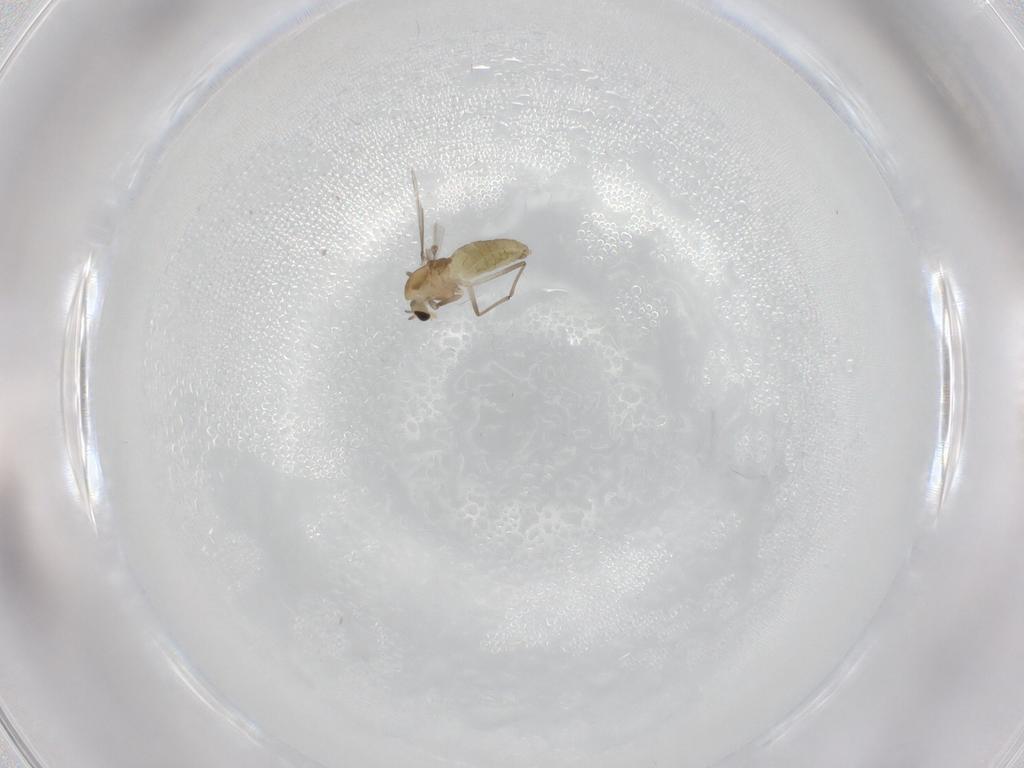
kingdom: Animalia
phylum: Arthropoda
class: Insecta
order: Diptera
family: Chironomidae
